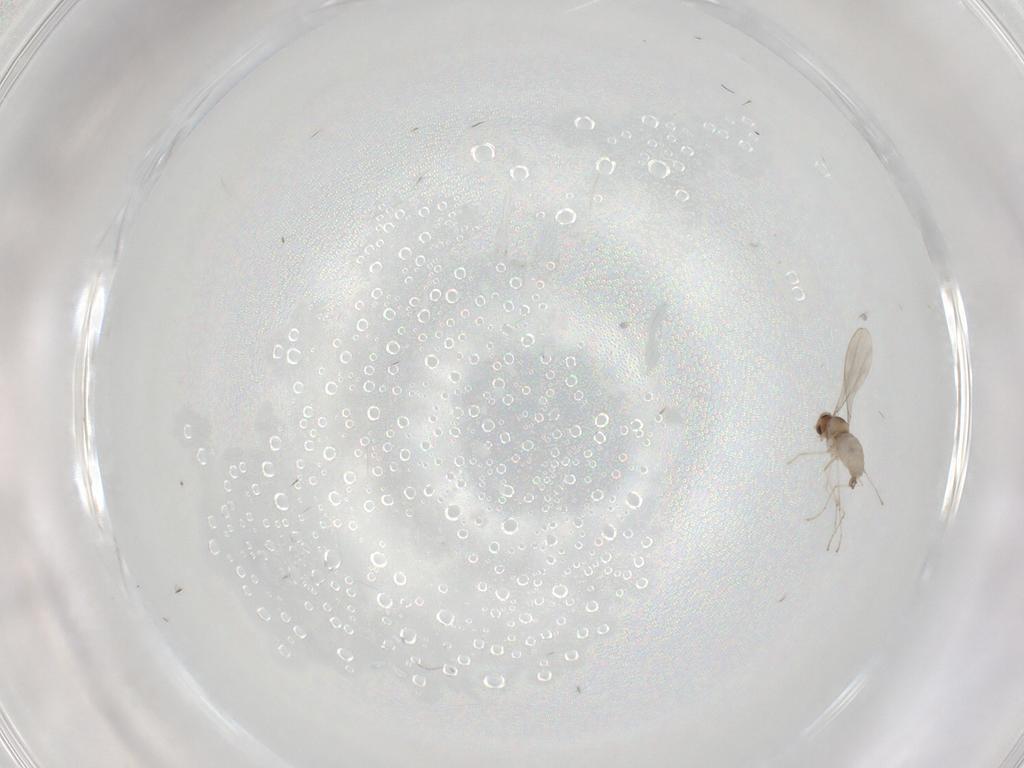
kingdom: Animalia
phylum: Arthropoda
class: Insecta
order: Diptera
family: Cecidomyiidae
